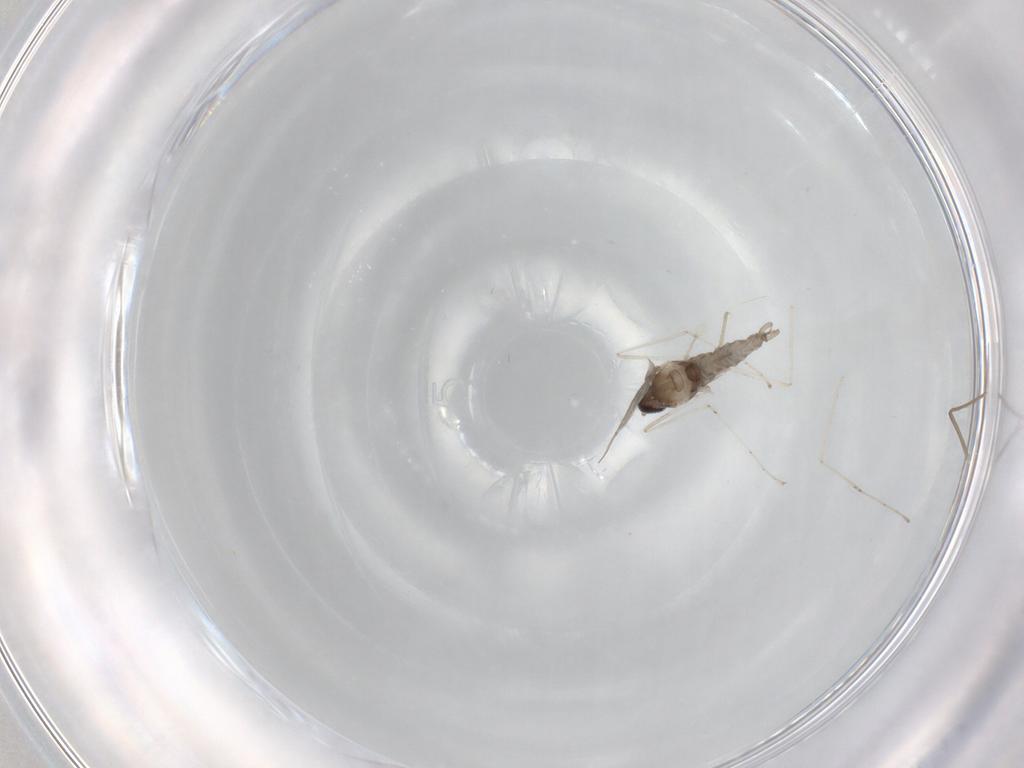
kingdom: Animalia
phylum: Arthropoda
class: Insecta
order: Diptera
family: Cecidomyiidae
